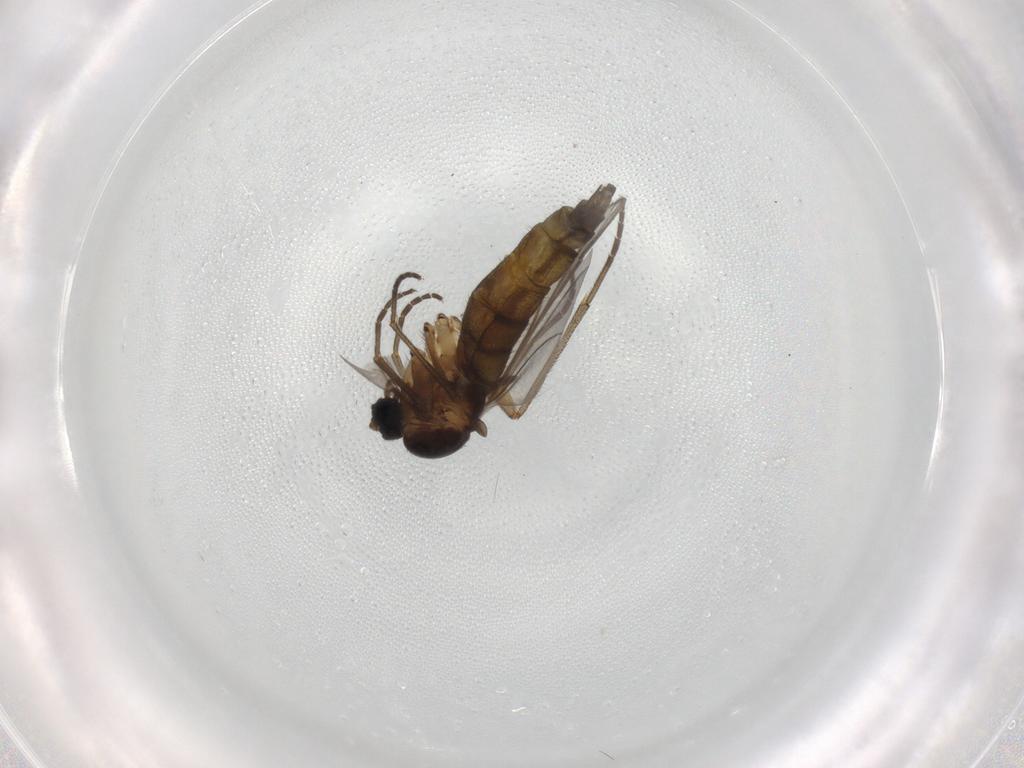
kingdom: Animalia
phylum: Arthropoda
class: Insecta
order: Diptera
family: Sciaridae
